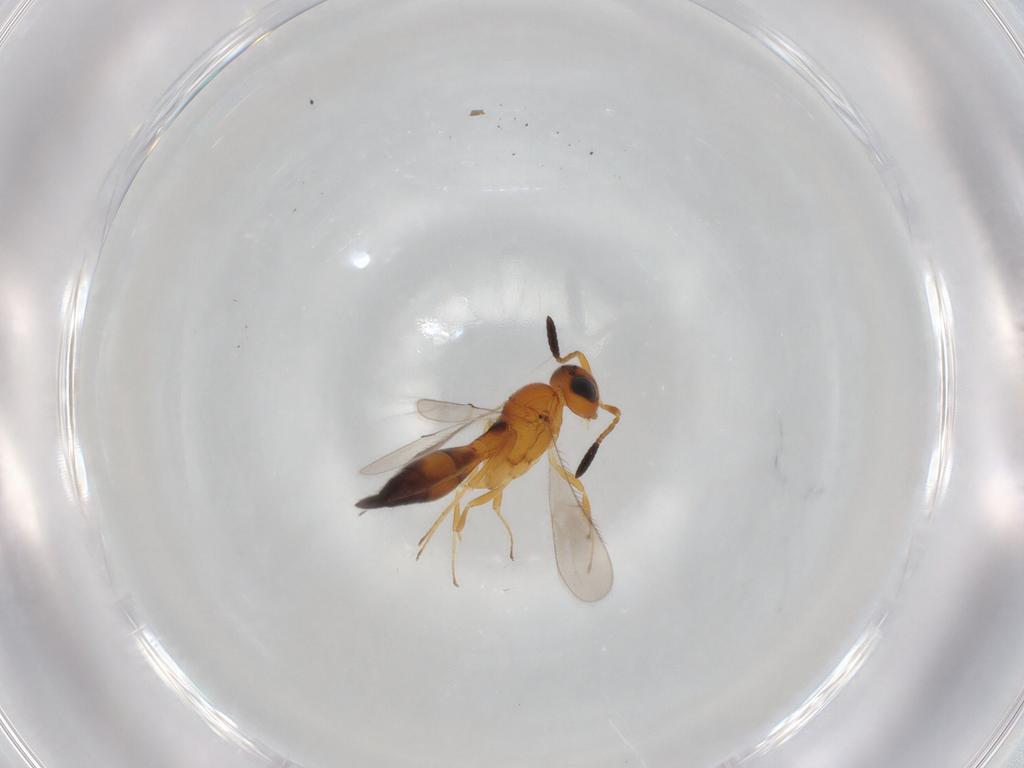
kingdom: Animalia
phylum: Arthropoda
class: Insecta
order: Hymenoptera
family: Scelionidae
